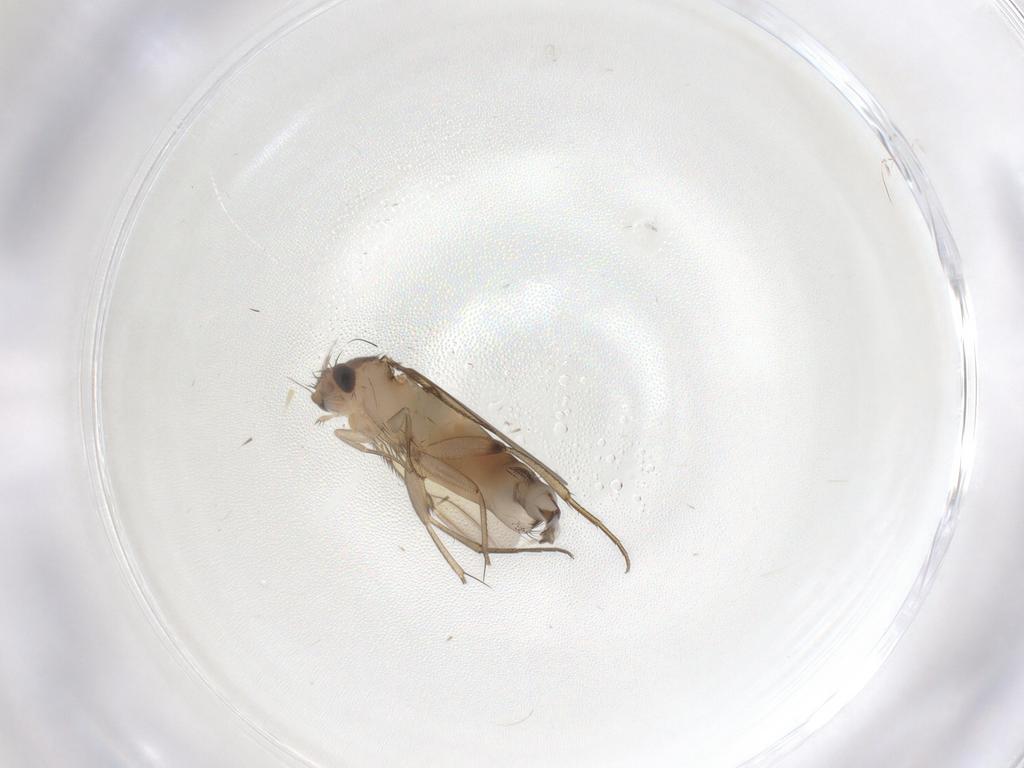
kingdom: Animalia
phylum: Arthropoda
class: Insecta
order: Diptera
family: Phoridae
